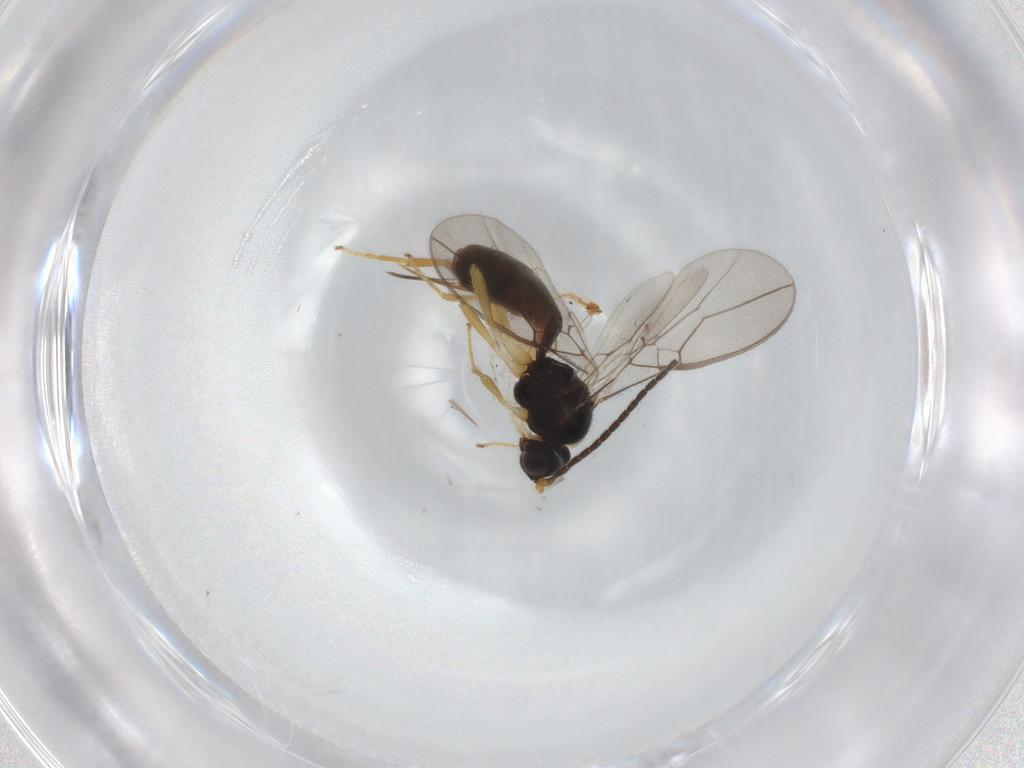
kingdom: Animalia
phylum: Arthropoda
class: Insecta
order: Hymenoptera
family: Braconidae
